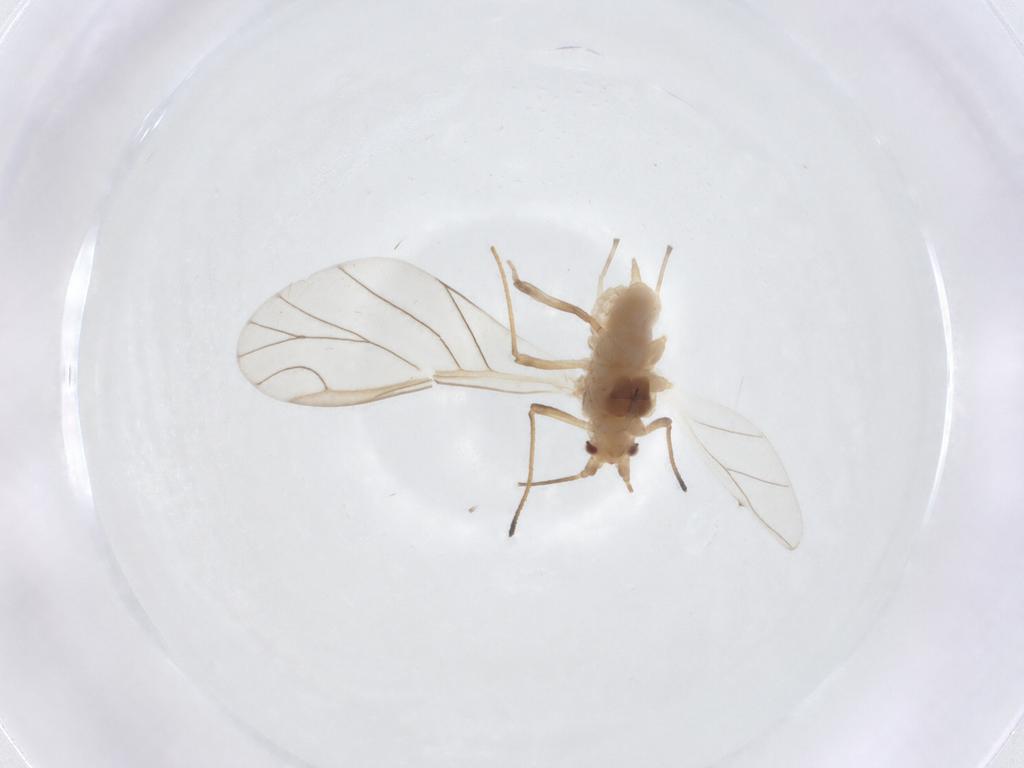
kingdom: Animalia
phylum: Arthropoda
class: Insecta
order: Hemiptera
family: Aphididae
